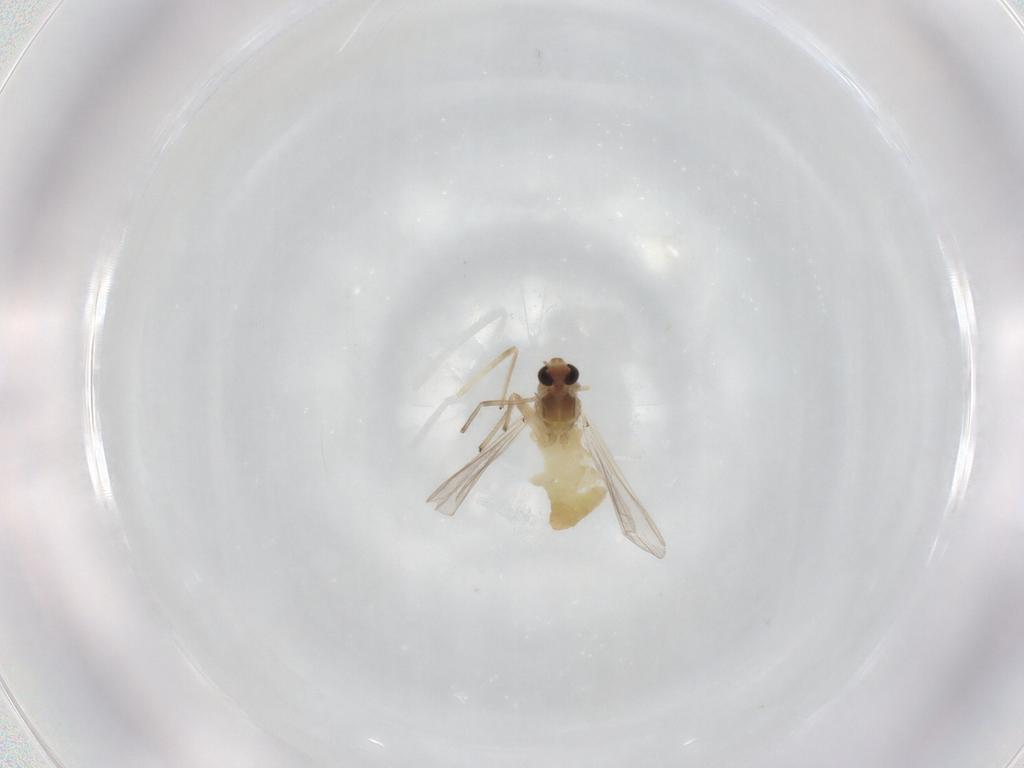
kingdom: Animalia
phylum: Arthropoda
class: Insecta
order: Diptera
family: Chironomidae
